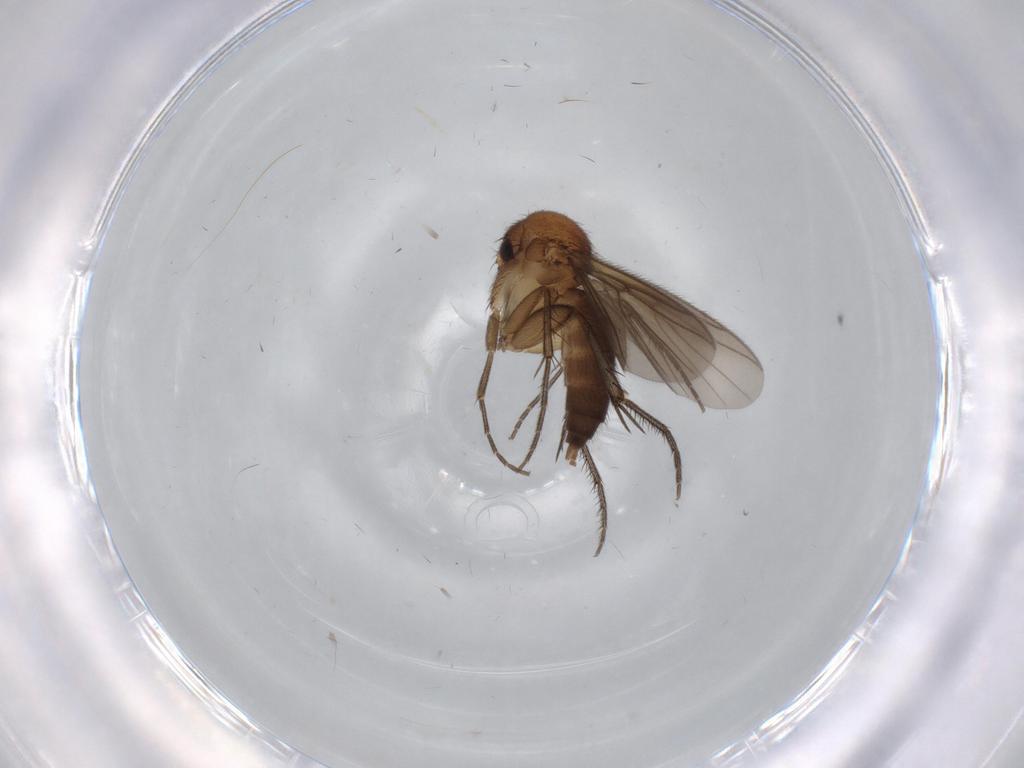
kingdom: Animalia
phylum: Arthropoda
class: Insecta
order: Diptera
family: Mycetophilidae
